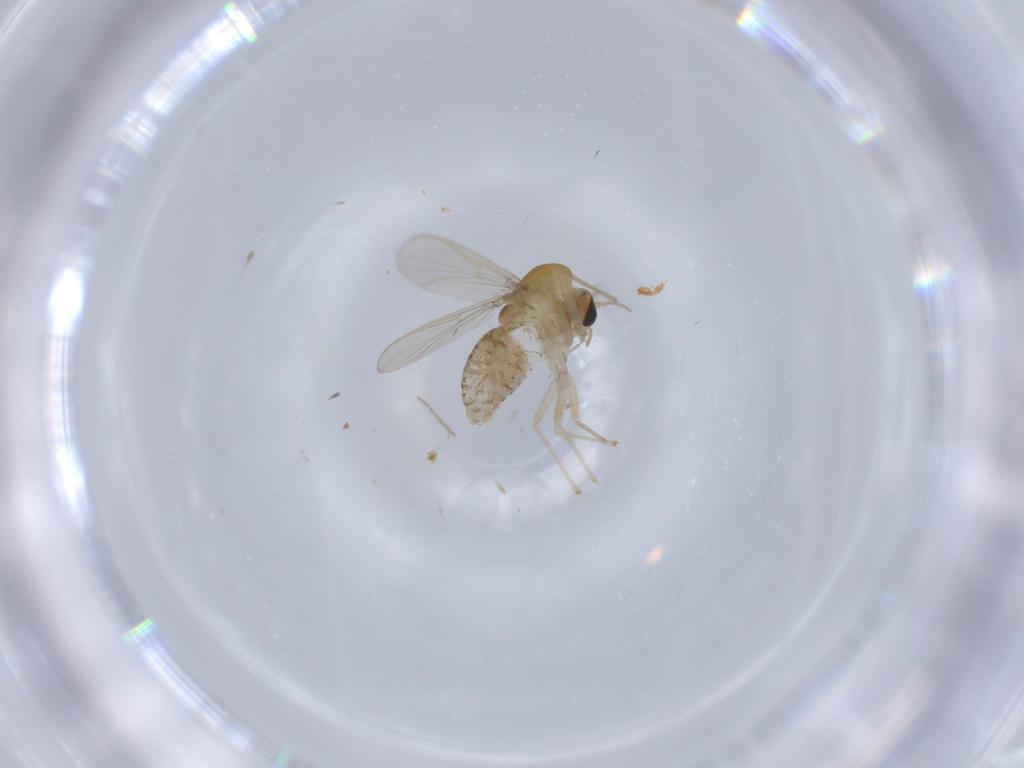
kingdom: Animalia
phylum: Arthropoda
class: Insecta
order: Diptera
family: Chironomidae
